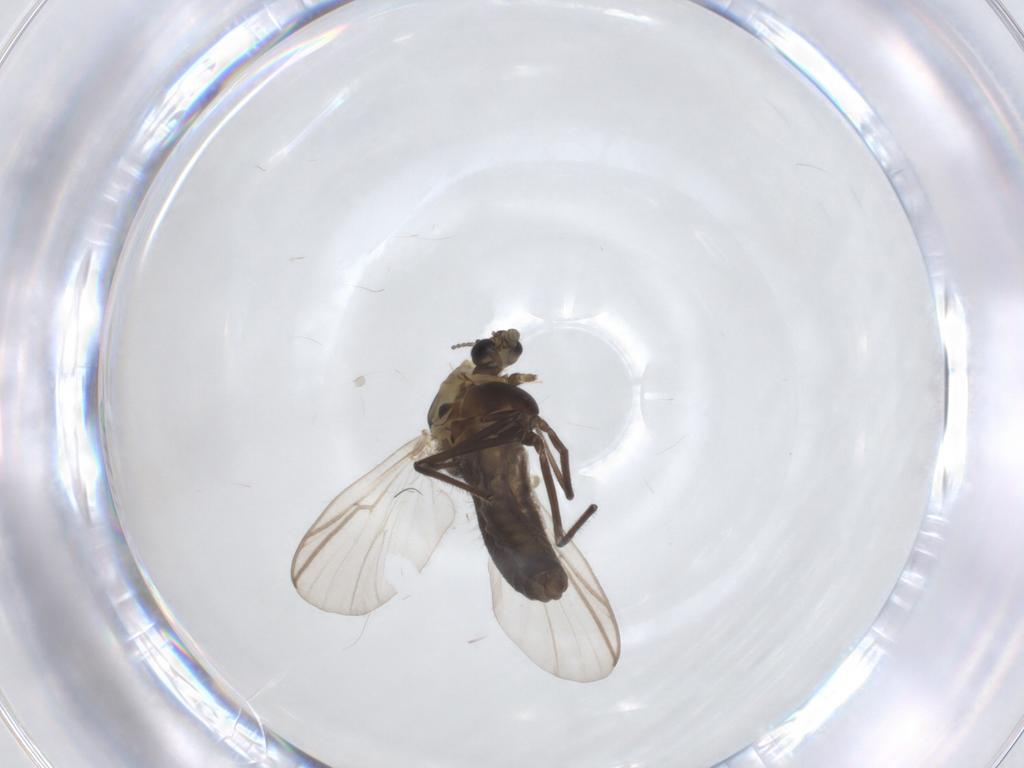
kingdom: Animalia
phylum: Arthropoda
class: Insecta
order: Diptera
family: Chironomidae
